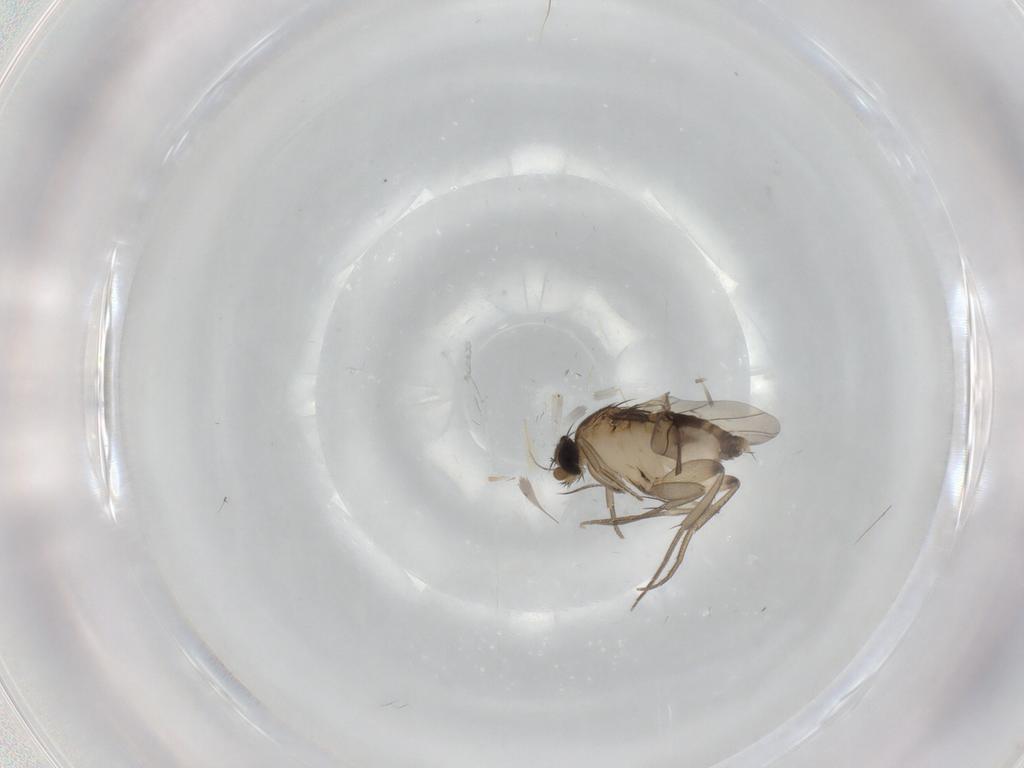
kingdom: Animalia
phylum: Arthropoda
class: Insecta
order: Diptera
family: Phoridae
